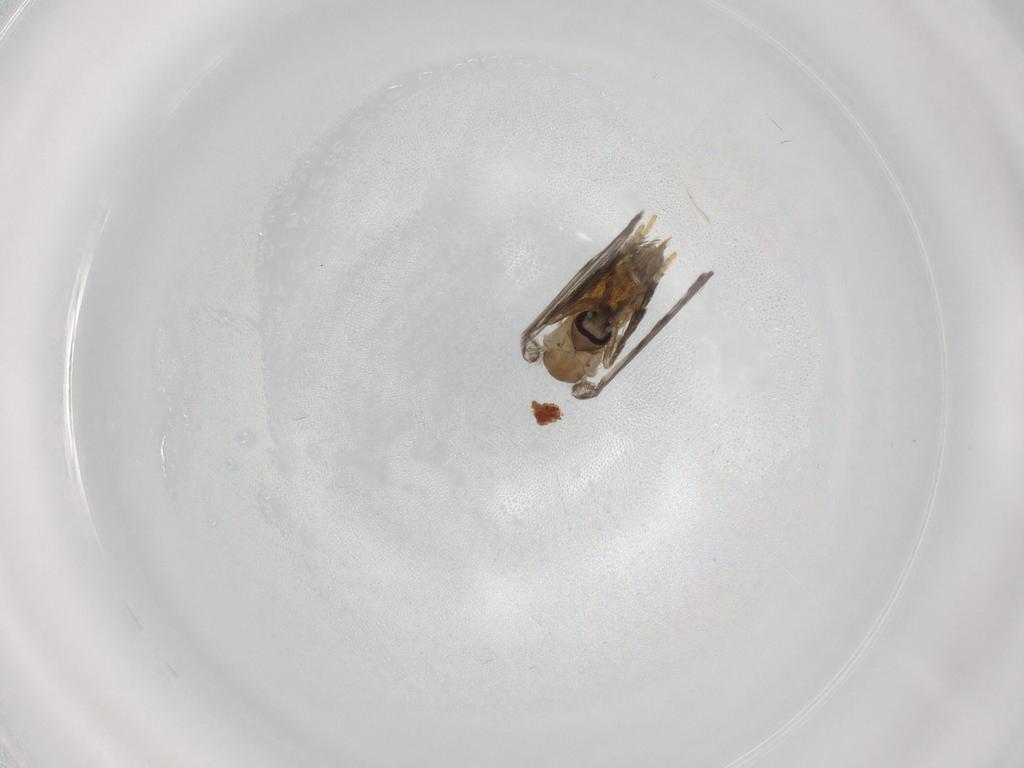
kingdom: Animalia
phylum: Arthropoda
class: Insecta
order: Diptera
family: Psychodidae
